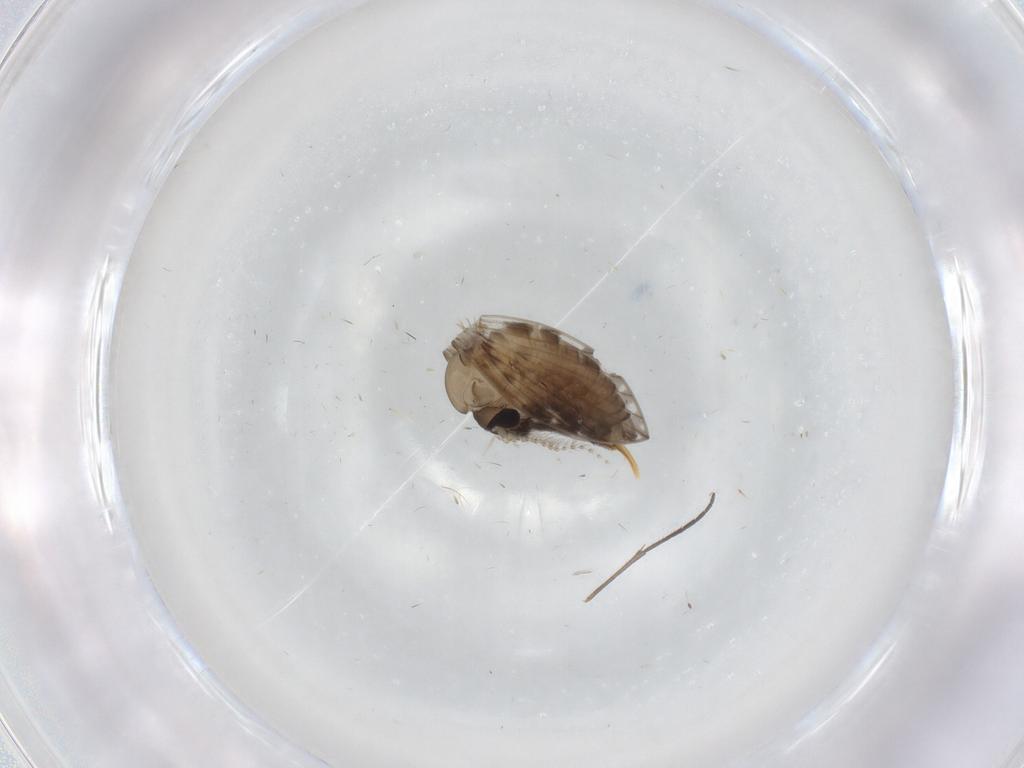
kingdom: Animalia
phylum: Arthropoda
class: Insecta
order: Diptera
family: Psychodidae
